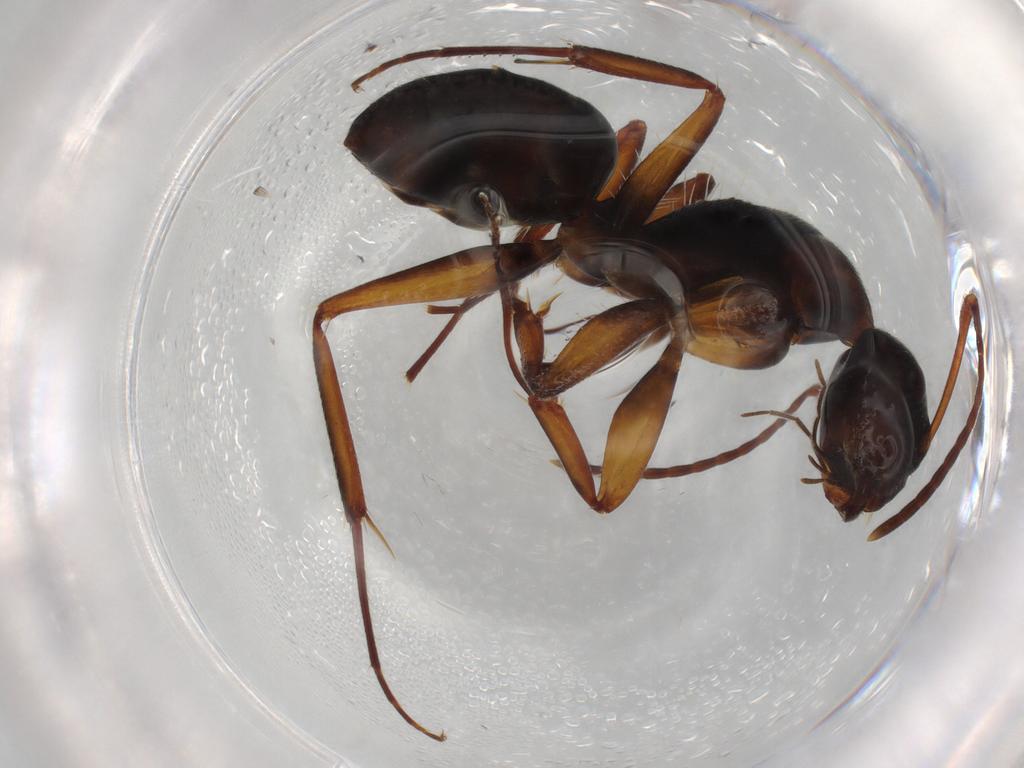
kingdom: Animalia
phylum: Arthropoda
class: Insecta
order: Hymenoptera
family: Formicidae
